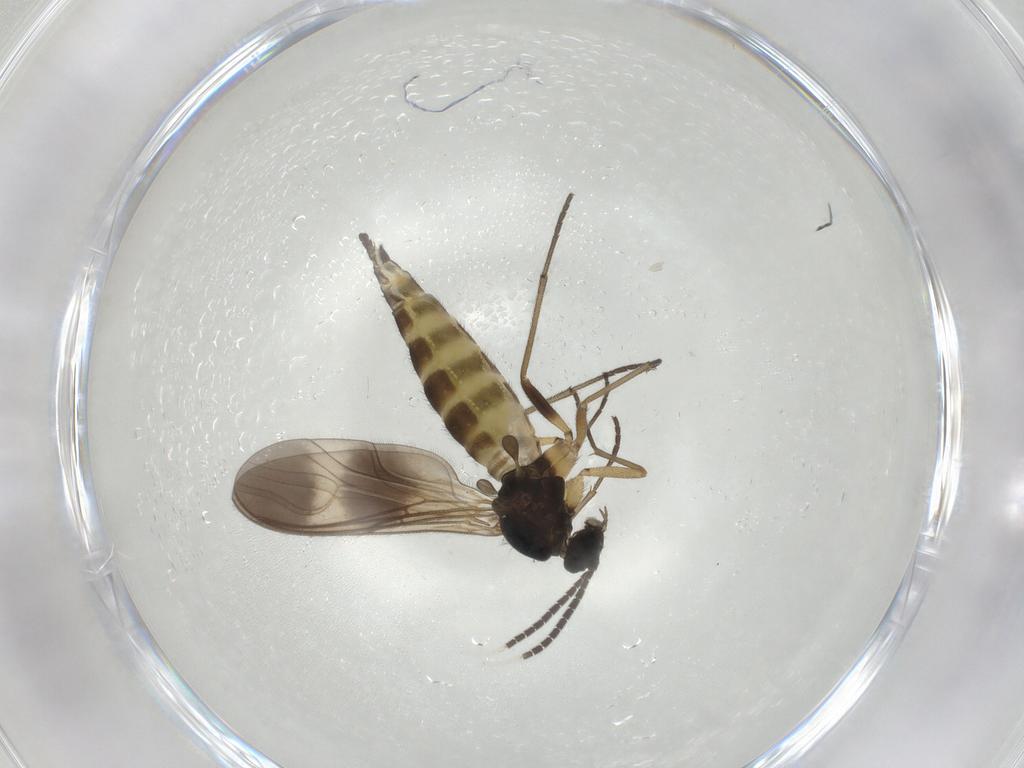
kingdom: Animalia
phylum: Arthropoda
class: Insecta
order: Diptera
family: Sciaridae
